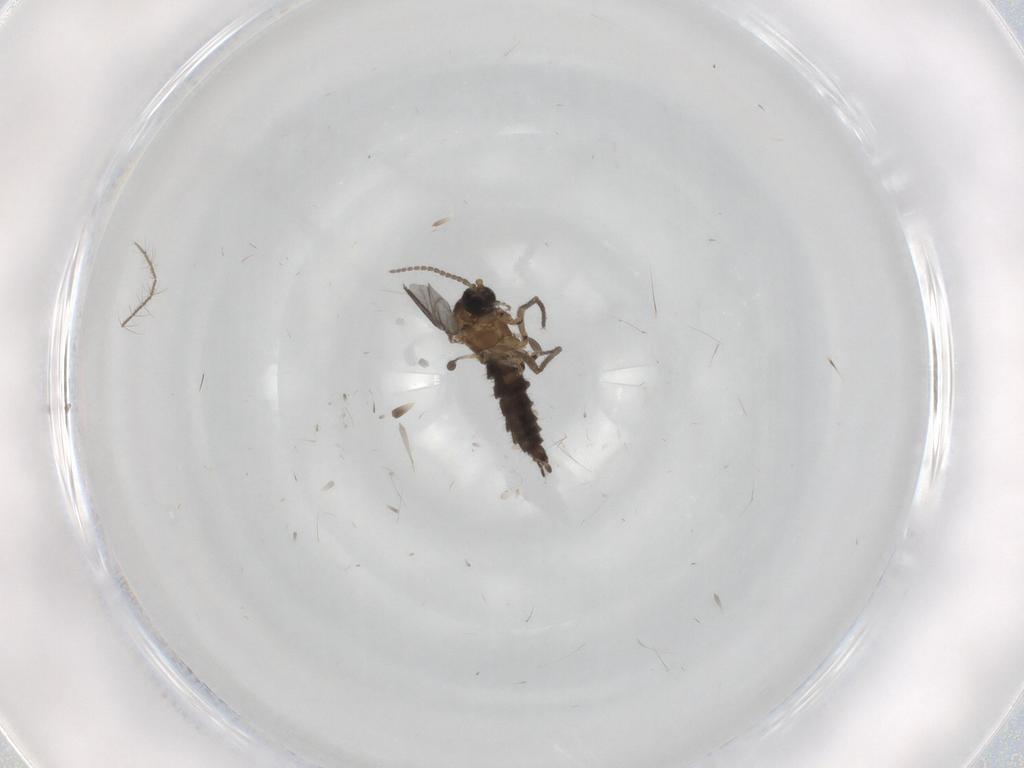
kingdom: Animalia
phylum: Arthropoda
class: Insecta
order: Diptera
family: Sciaridae
